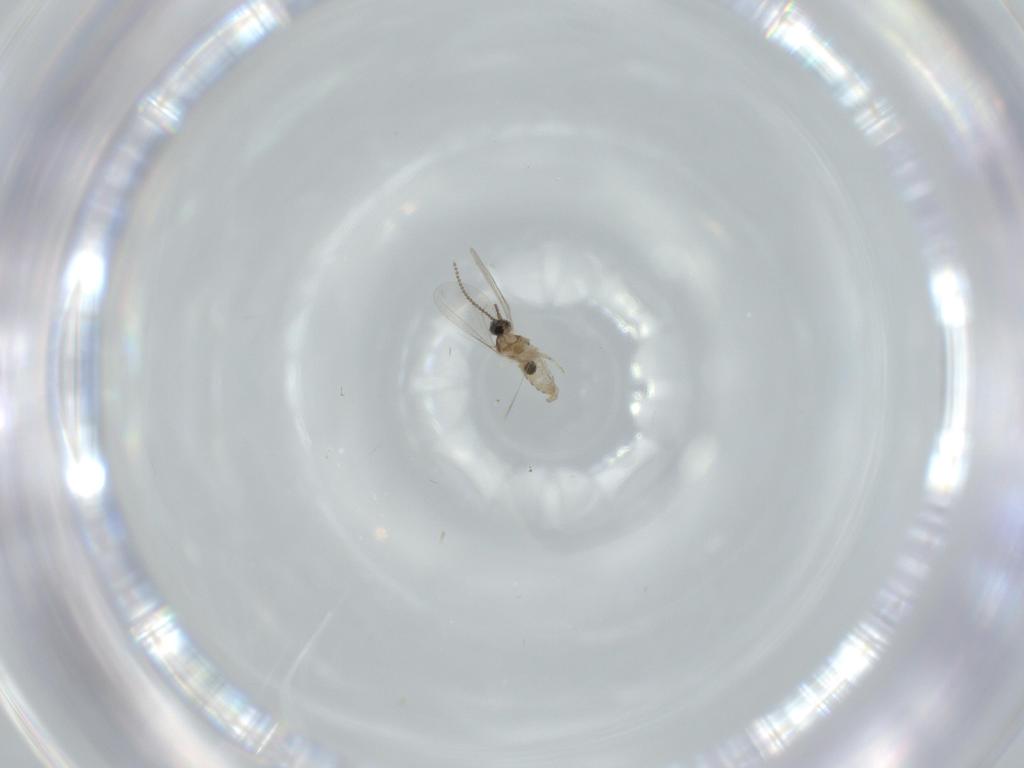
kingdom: Animalia
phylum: Arthropoda
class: Insecta
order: Diptera
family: Cecidomyiidae
